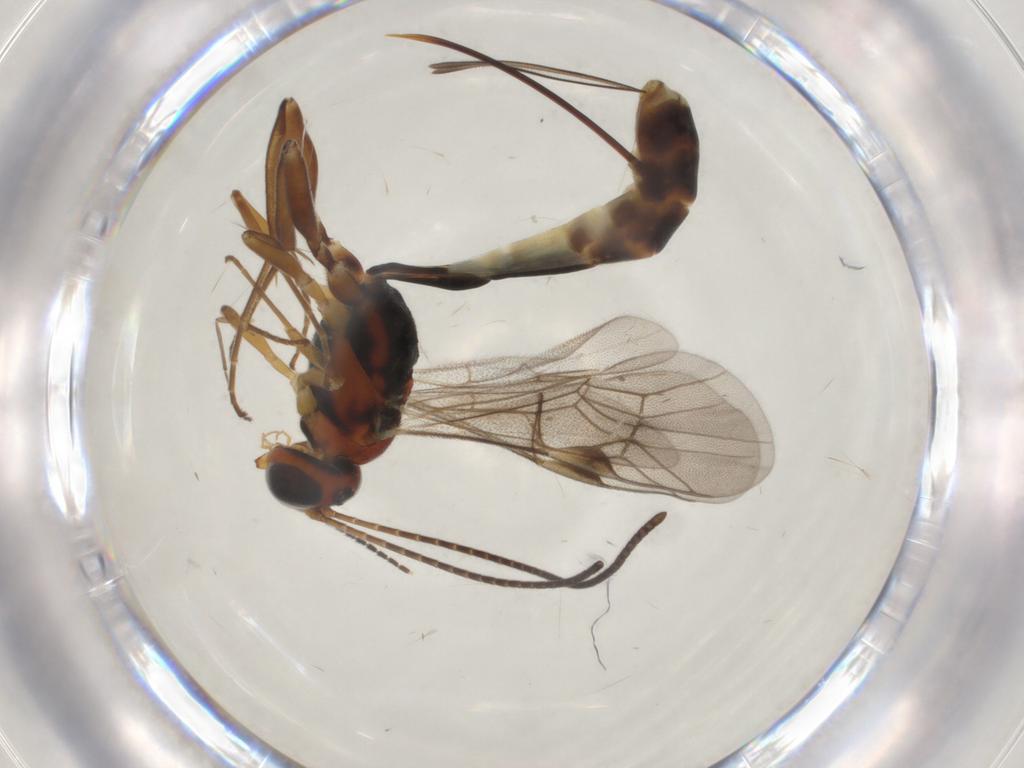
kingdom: Animalia
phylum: Arthropoda
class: Insecta
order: Hymenoptera
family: Ichneumonidae
